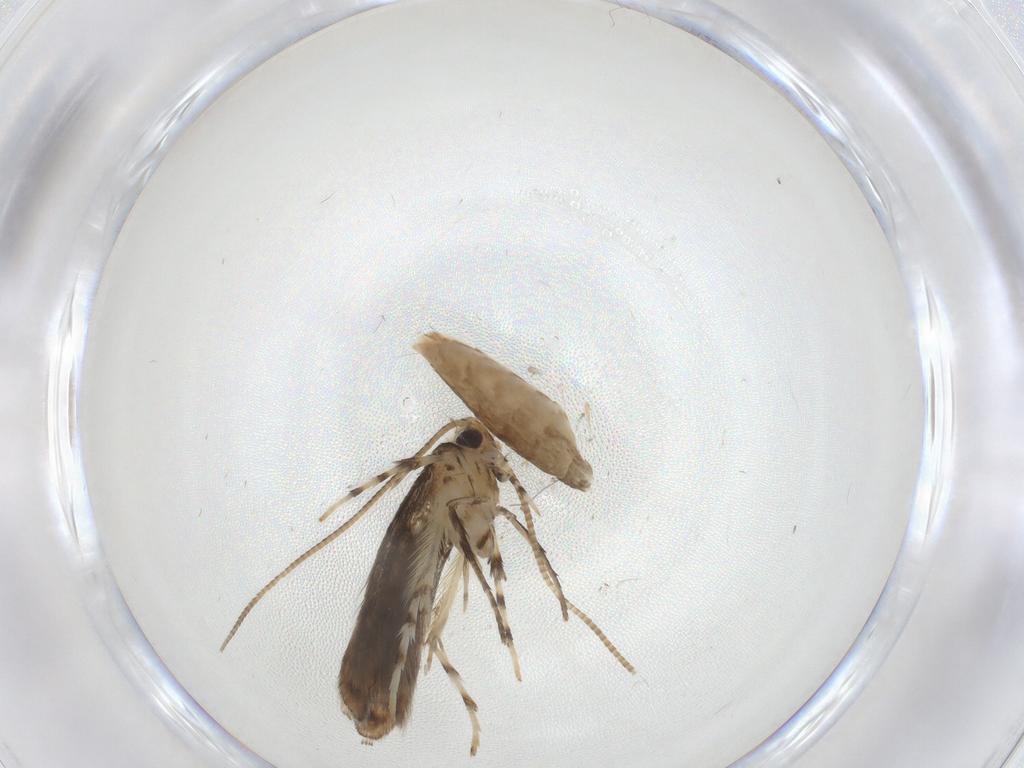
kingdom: Animalia
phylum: Arthropoda
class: Insecta
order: Lepidoptera
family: Gracillariidae
